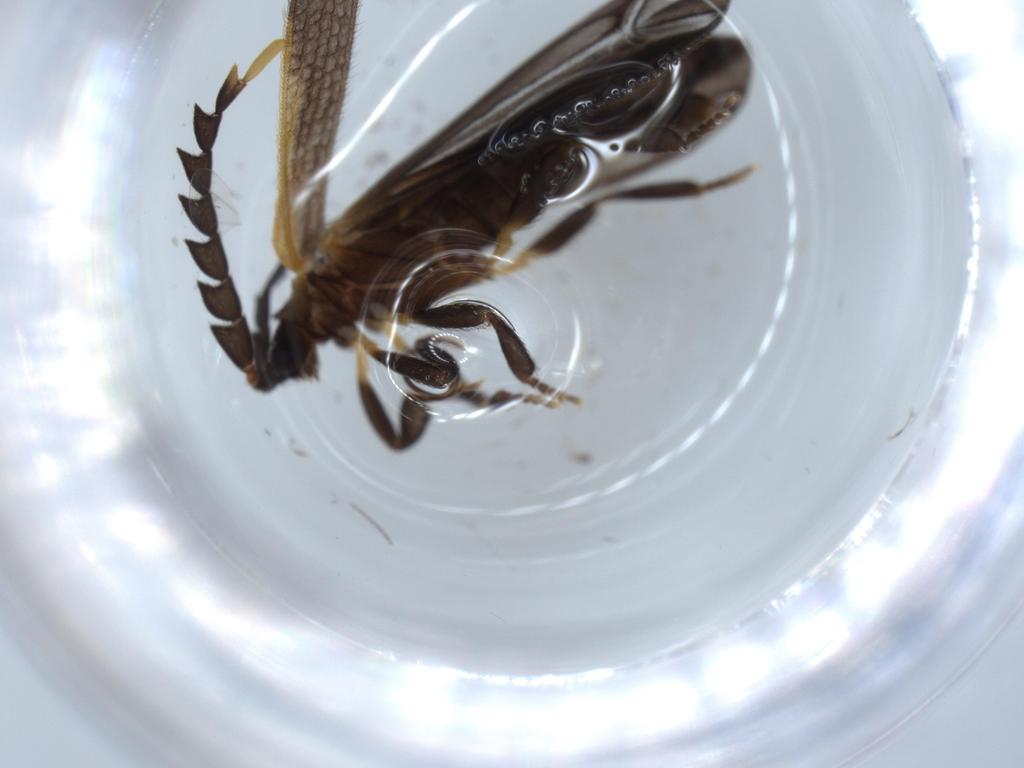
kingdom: Animalia
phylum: Arthropoda
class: Insecta
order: Coleoptera
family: Lycidae
